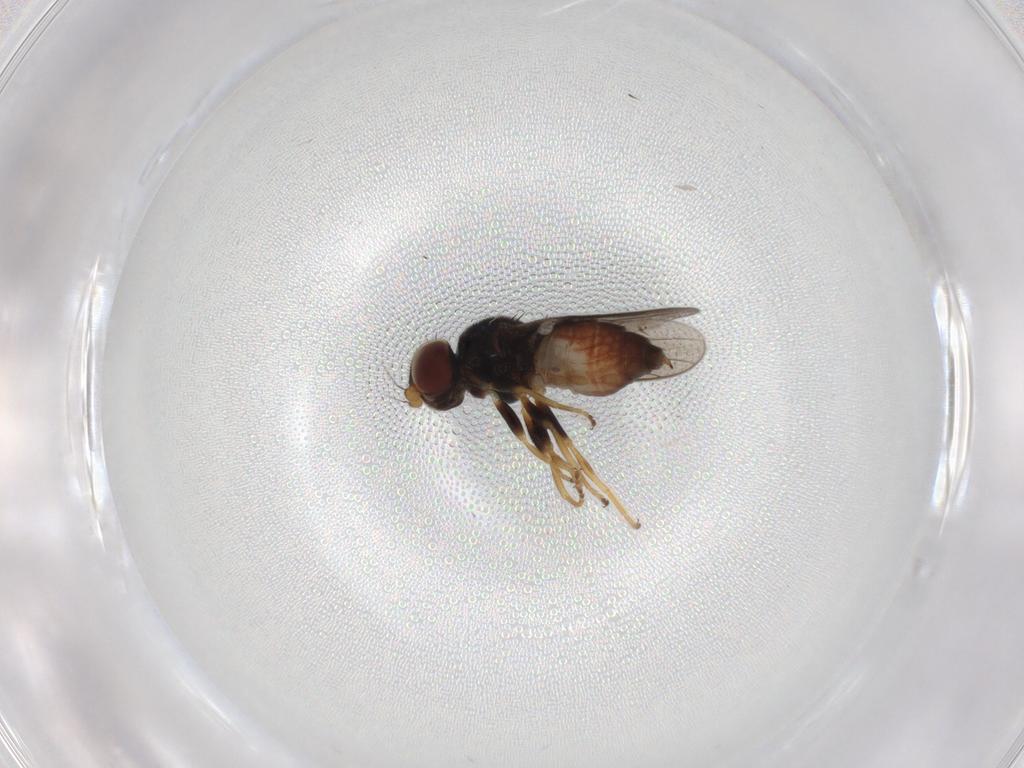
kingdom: Animalia
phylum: Arthropoda
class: Insecta
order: Diptera
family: Chloropidae
